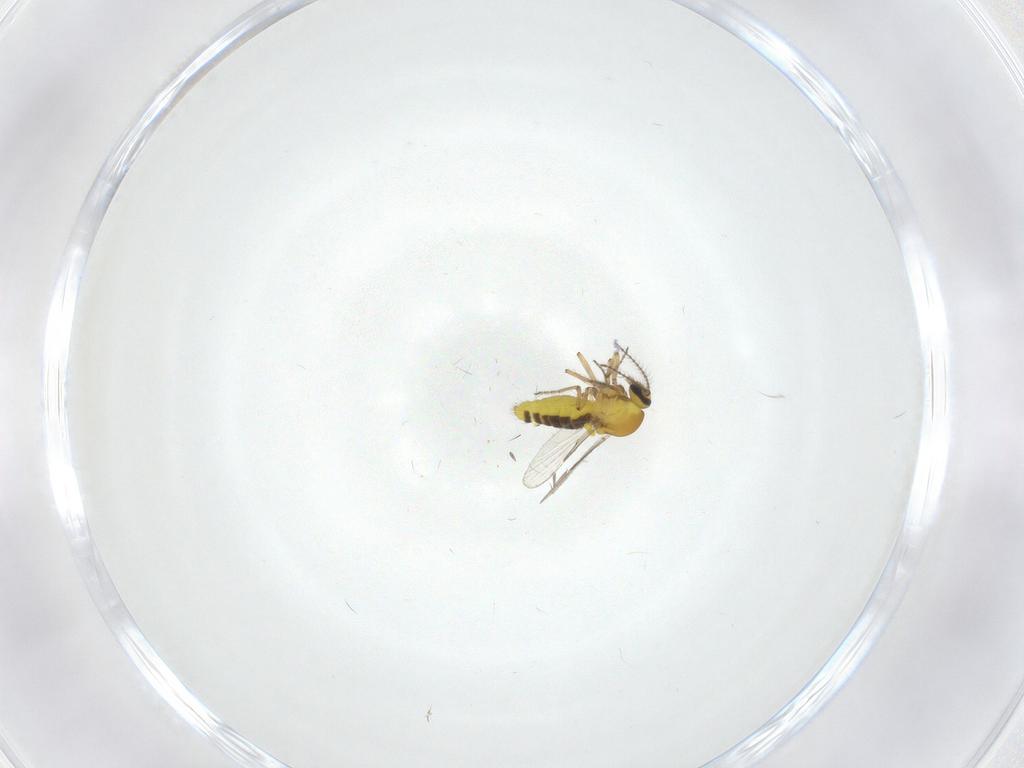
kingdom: Animalia
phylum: Arthropoda
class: Insecta
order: Diptera
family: Ceratopogonidae
